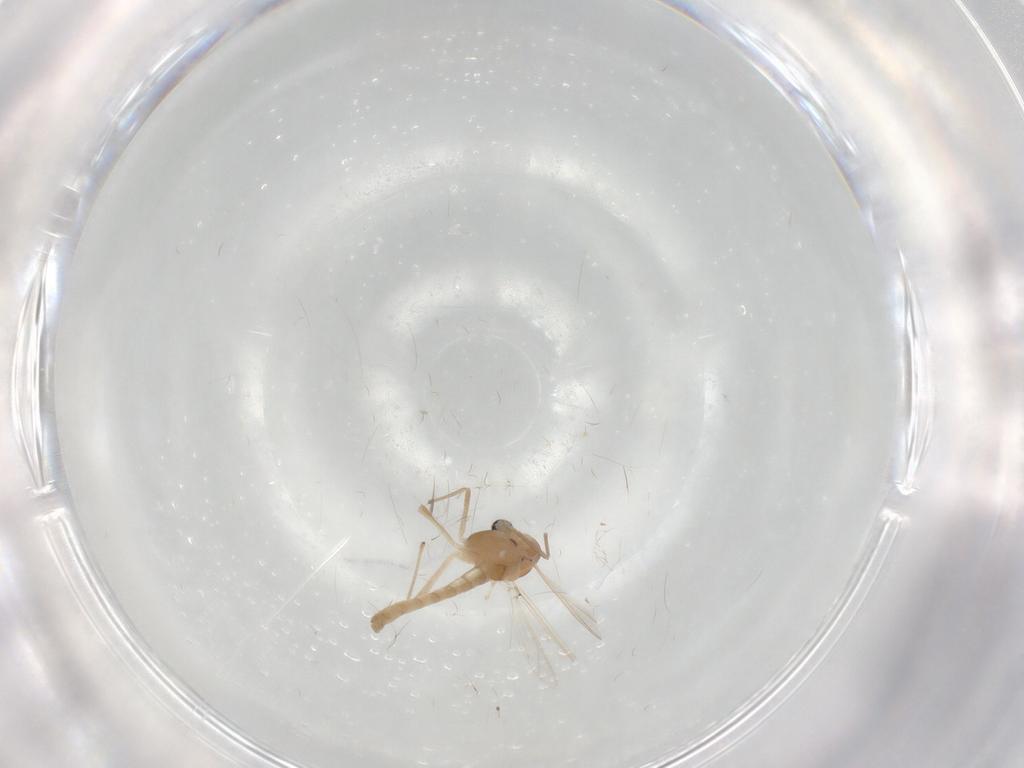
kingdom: Animalia
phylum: Arthropoda
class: Insecta
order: Diptera
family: Chironomidae
